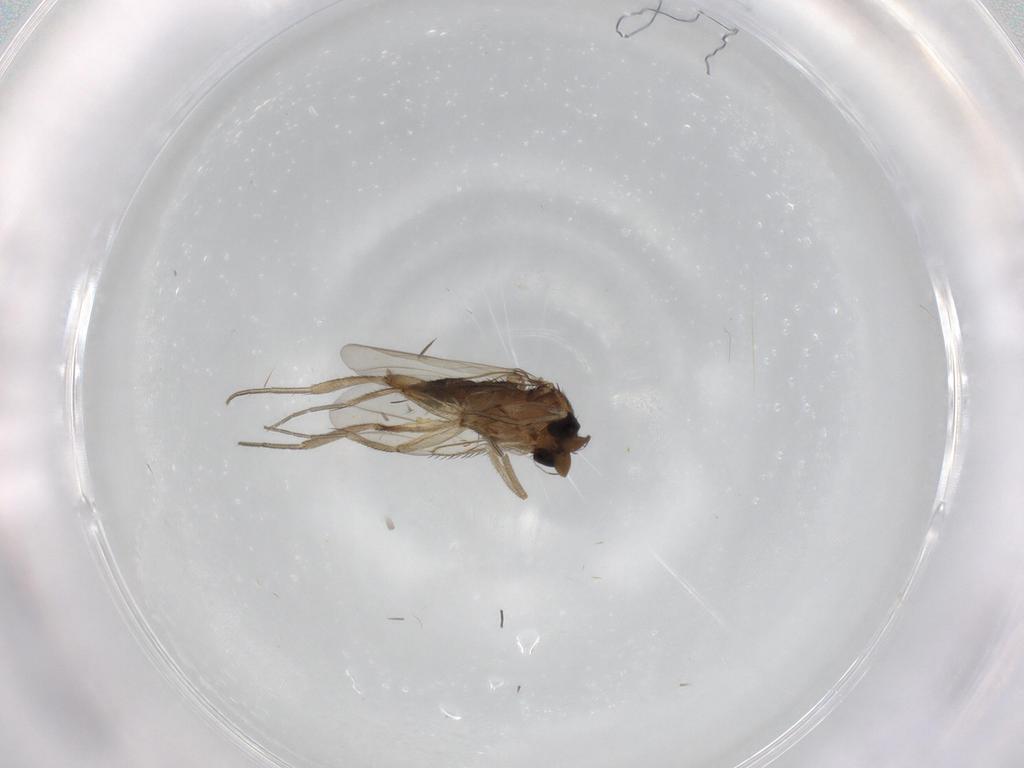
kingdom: Animalia
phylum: Arthropoda
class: Insecta
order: Diptera
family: Phoridae
